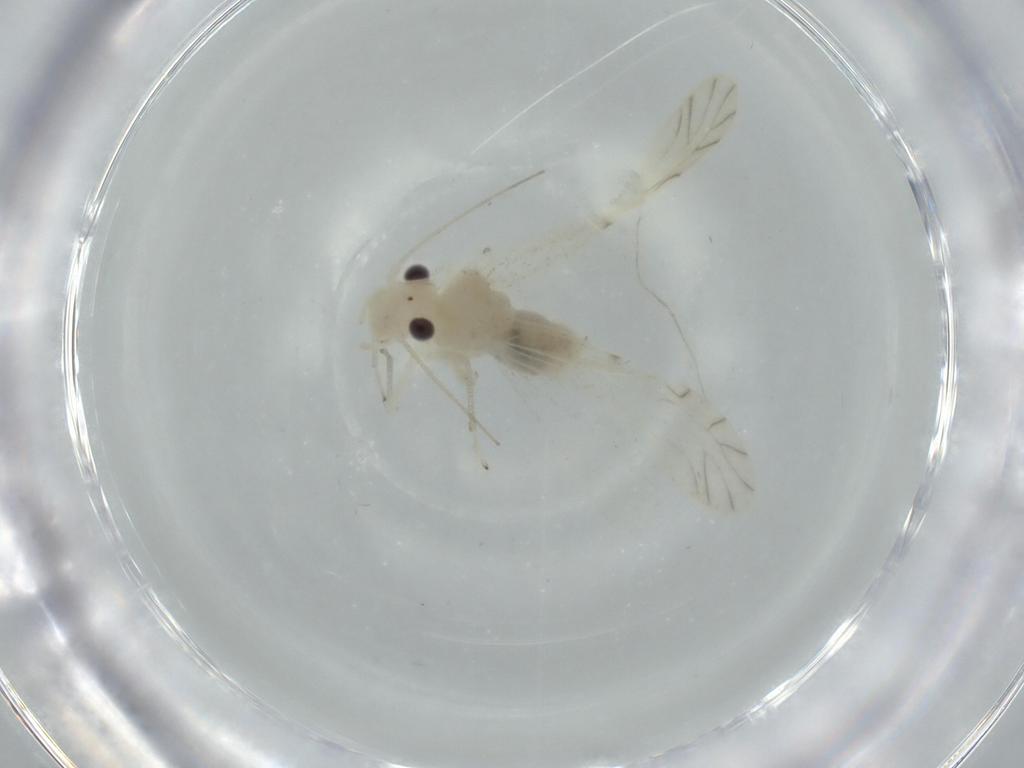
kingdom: Animalia
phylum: Arthropoda
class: Insecta
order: Psocodea
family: Caeciliusidae
